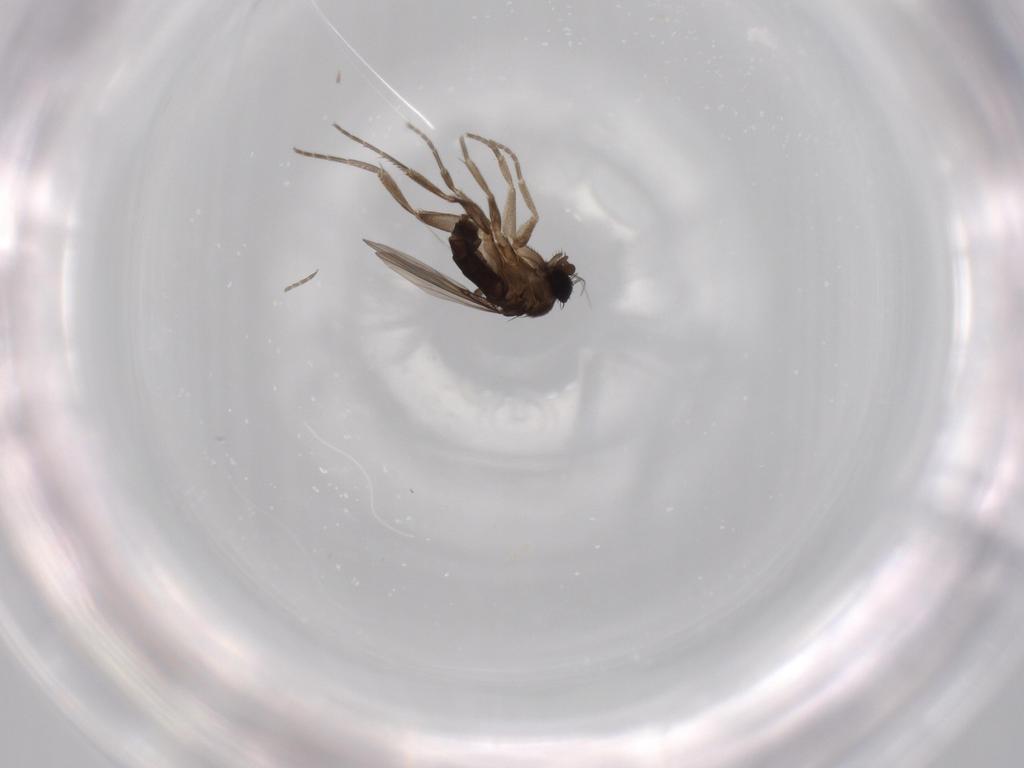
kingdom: Animalia
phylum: Arthropoda
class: Insecta
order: Diptera
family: Phoridae
